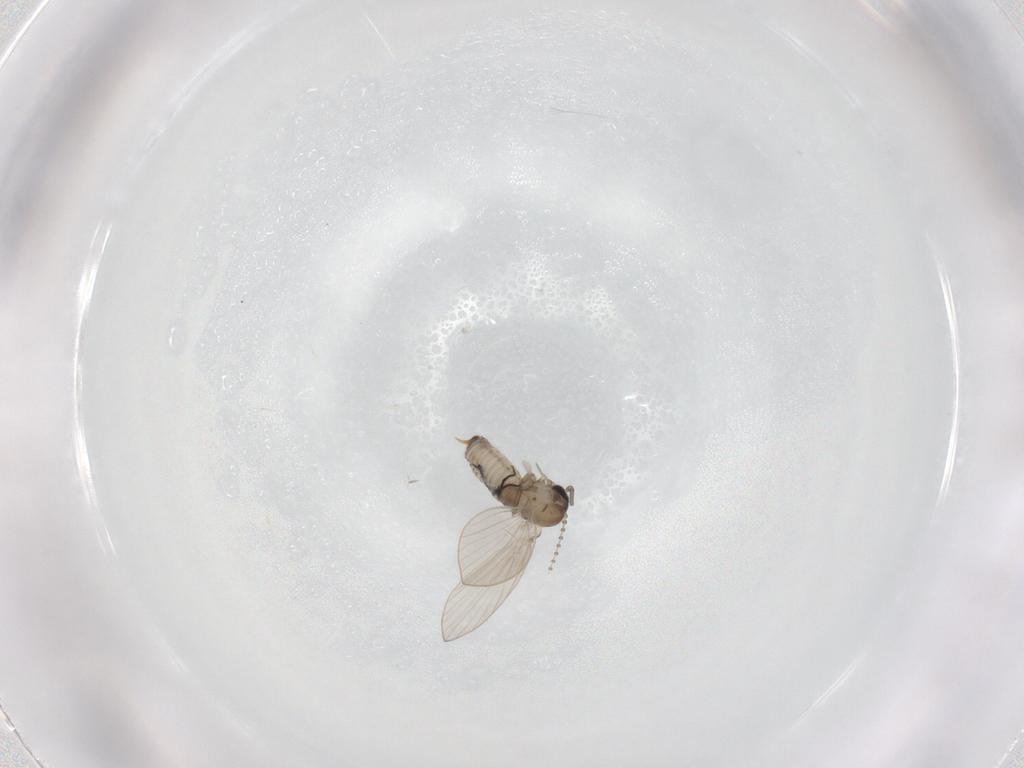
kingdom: Animalia
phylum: Arthropoda
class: Insecta
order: Diptera
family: Psychodidae
